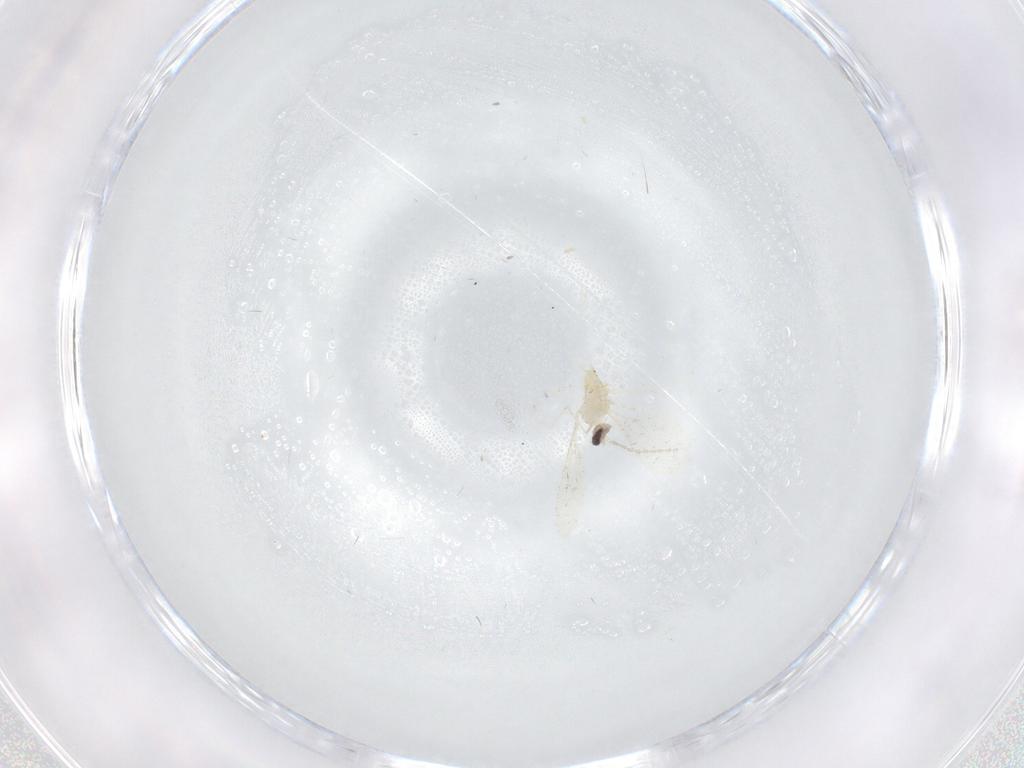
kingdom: Animalia
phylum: Arthropoda
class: Insecta
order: Diptera
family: Cecidomyiidae
